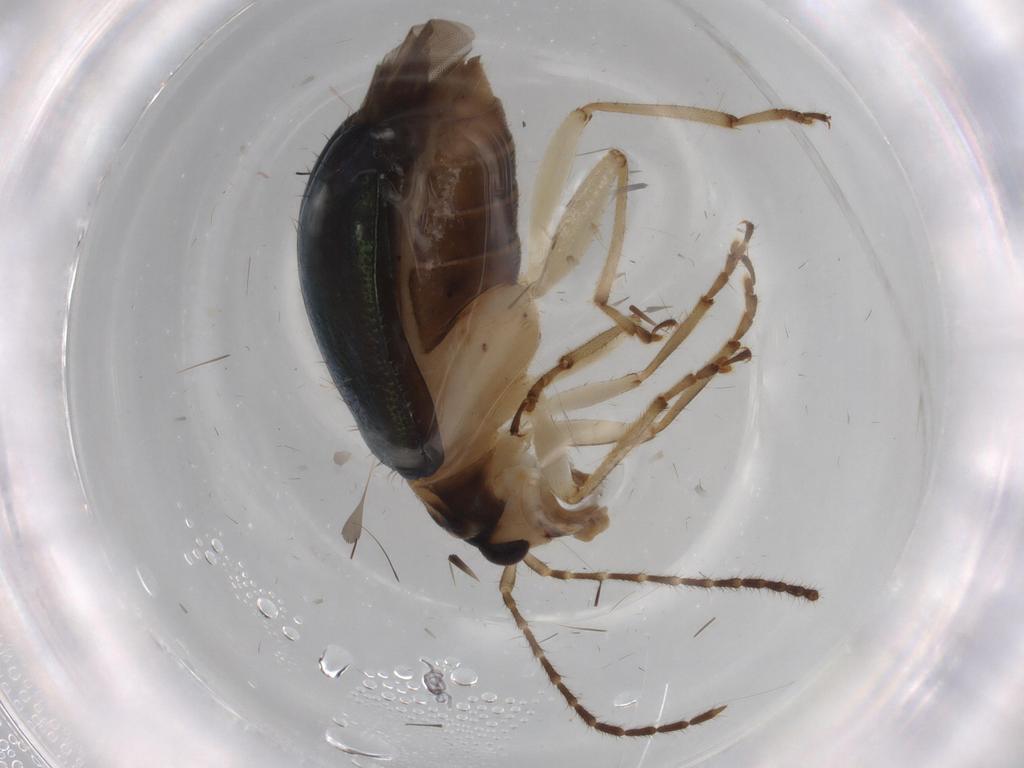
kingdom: Animalia
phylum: Arthropoda
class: Insecta
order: Coleoptera
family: Chrysomelidae
